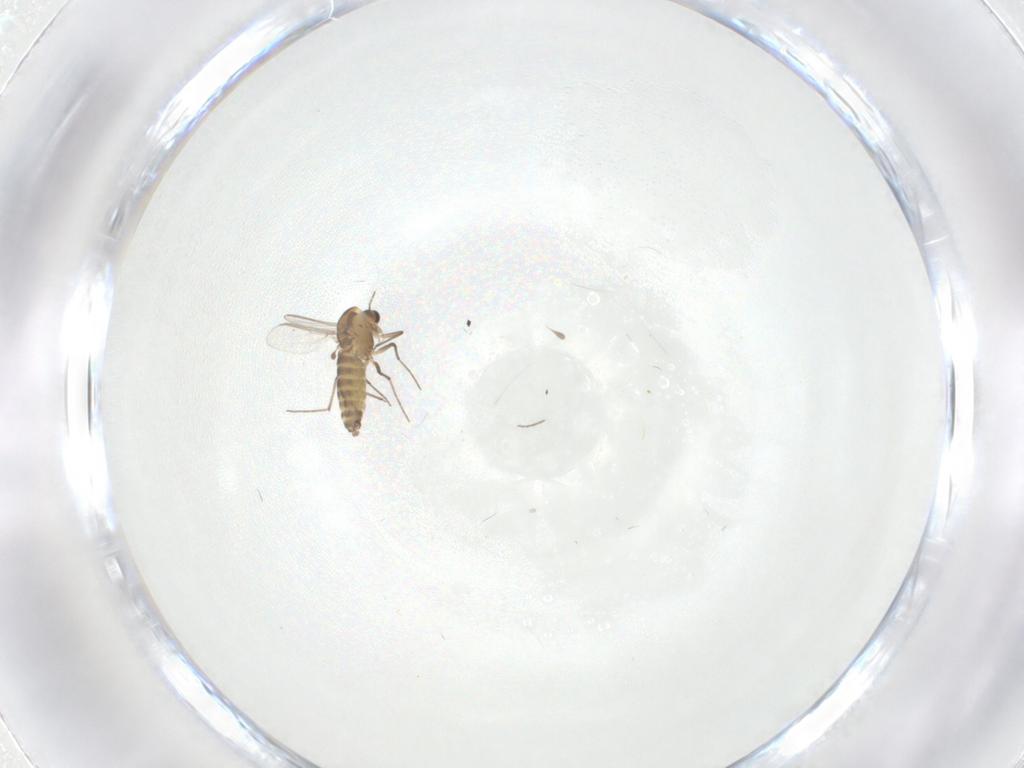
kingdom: Animalia
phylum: Arthropoda
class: Insecta
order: Diptera
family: Chironomidae
